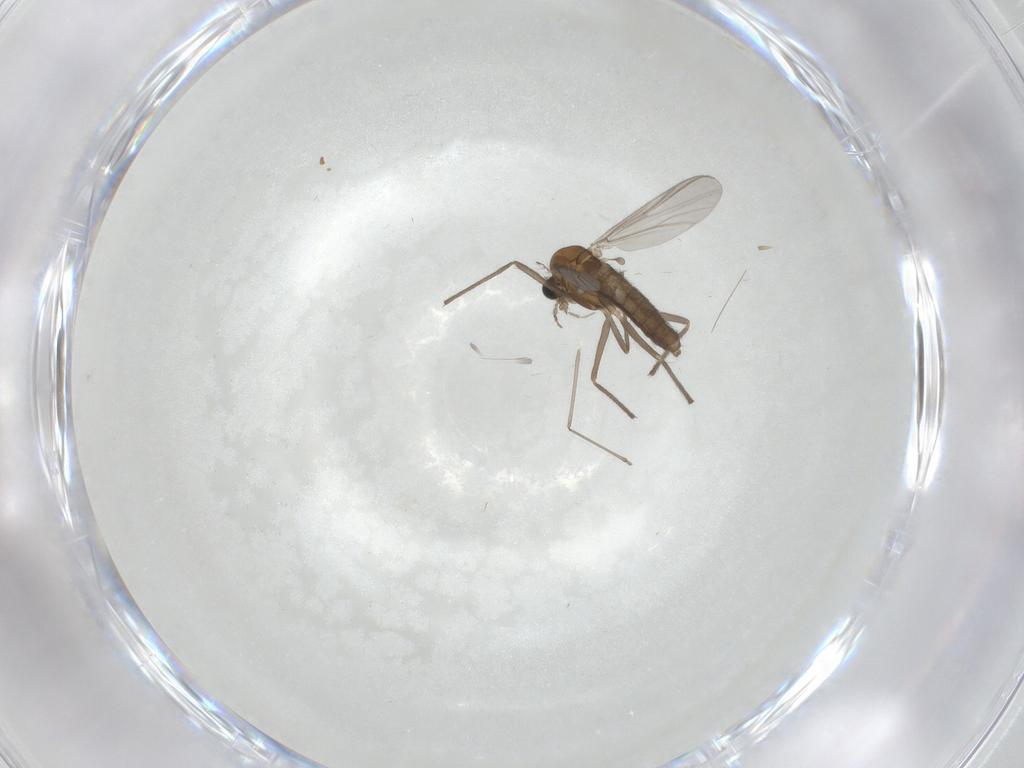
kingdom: Animalia
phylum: Arthropoda
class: Insecta
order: Diptera
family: Chironomidae
